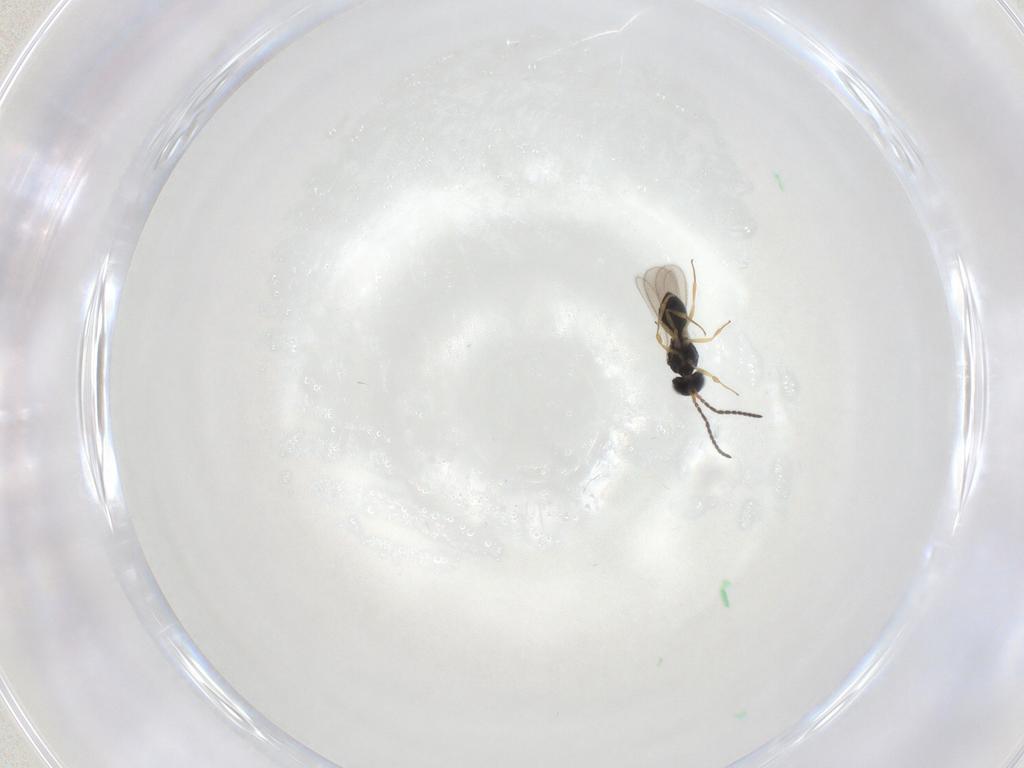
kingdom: Animalia
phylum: Arthropoda
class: Insecta
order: Hymenoptera
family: Scelionidae
